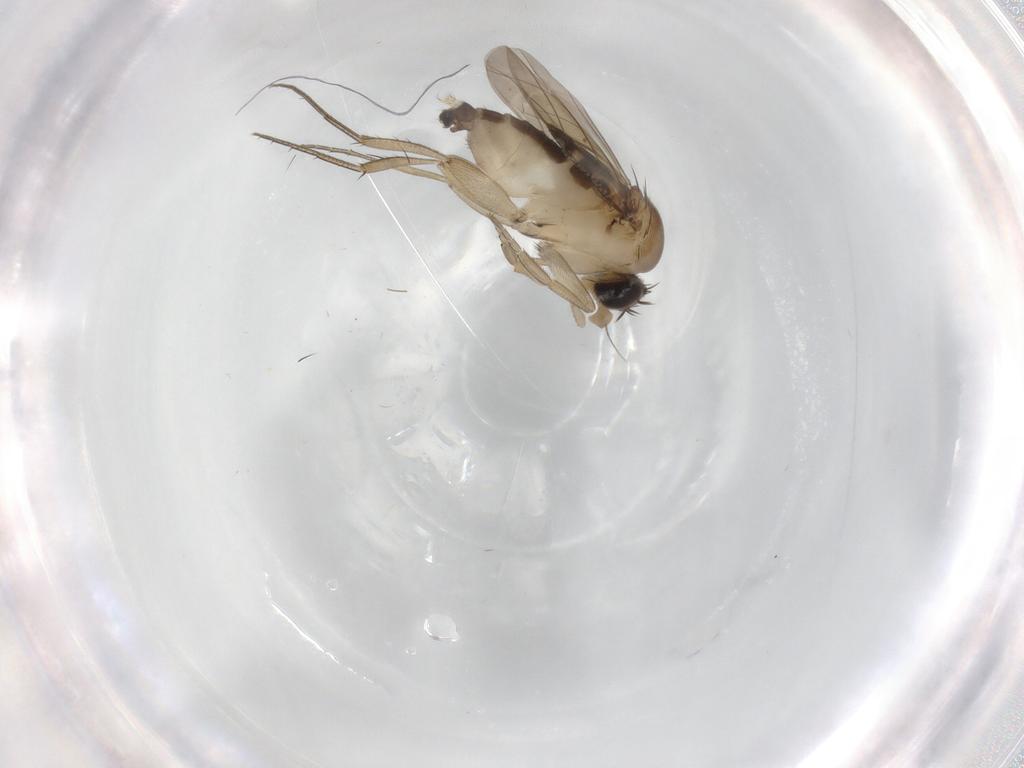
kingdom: Animalia
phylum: Arthropoda
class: Insecta
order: Diptera
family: Phoridae
